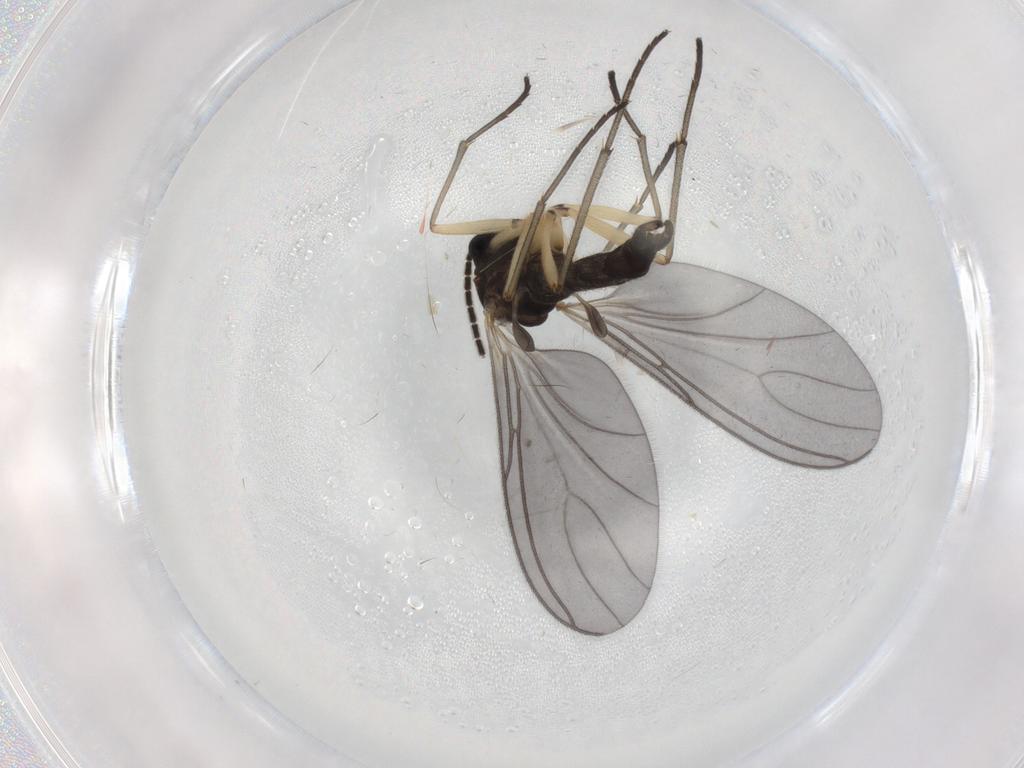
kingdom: Animalia
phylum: Arthropoda
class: Insecta
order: Diptera
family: Sciaridae
